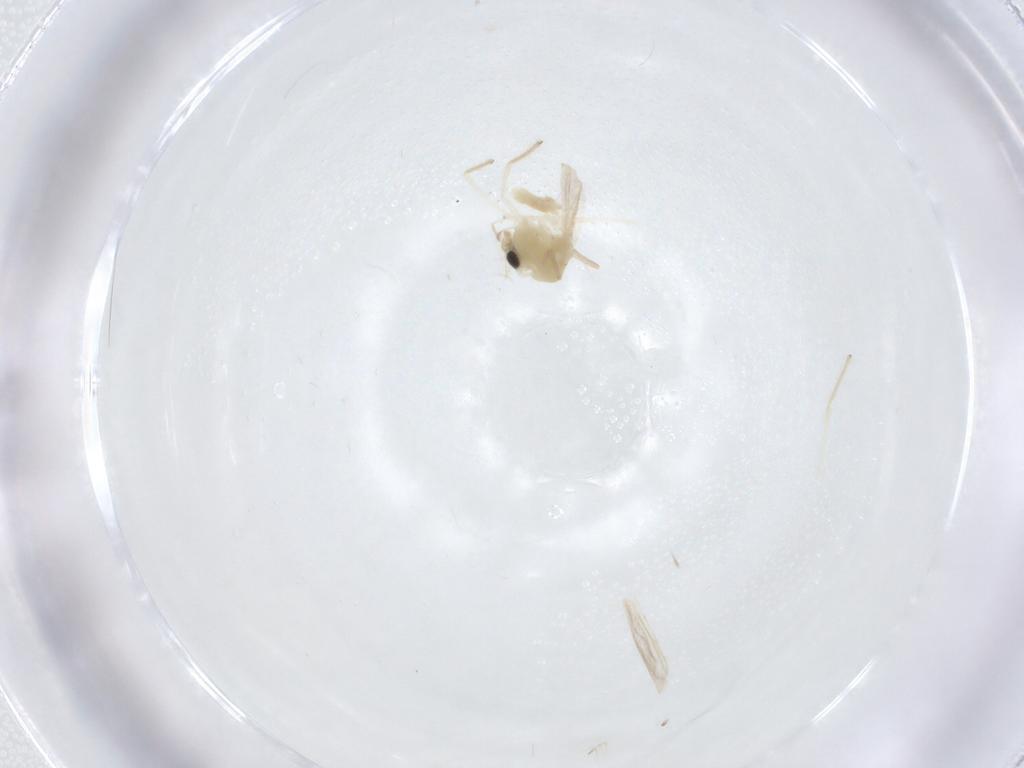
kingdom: Animalia
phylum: Arthropoda
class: Insecta
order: Diptera
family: Chironomidae
